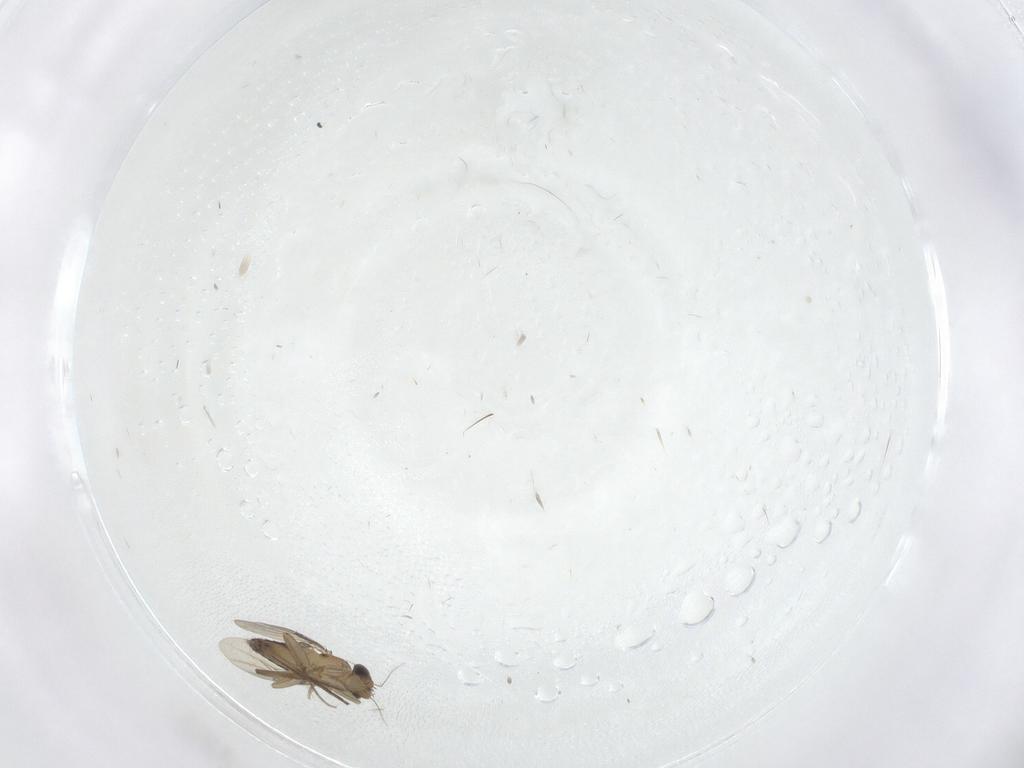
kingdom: Animalia
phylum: Arthropoda
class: Insecta
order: Diptera
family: Phoridae
